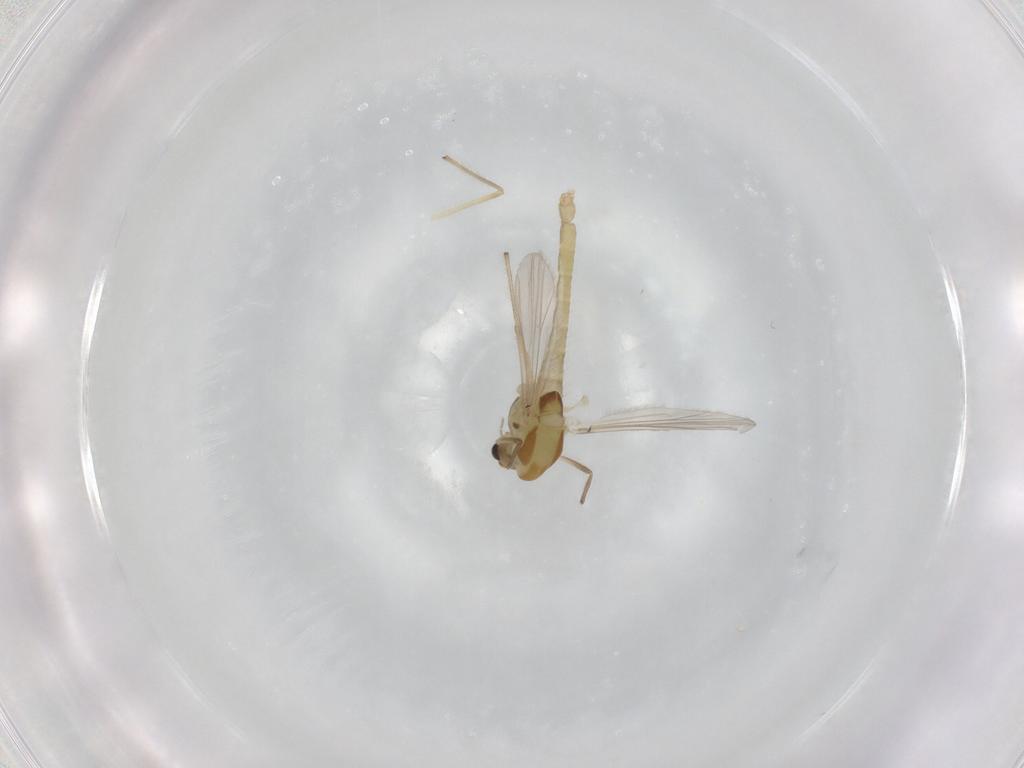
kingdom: Animalia
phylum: Arthropoda
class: Insecta
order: Diptera
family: Chironomidae
